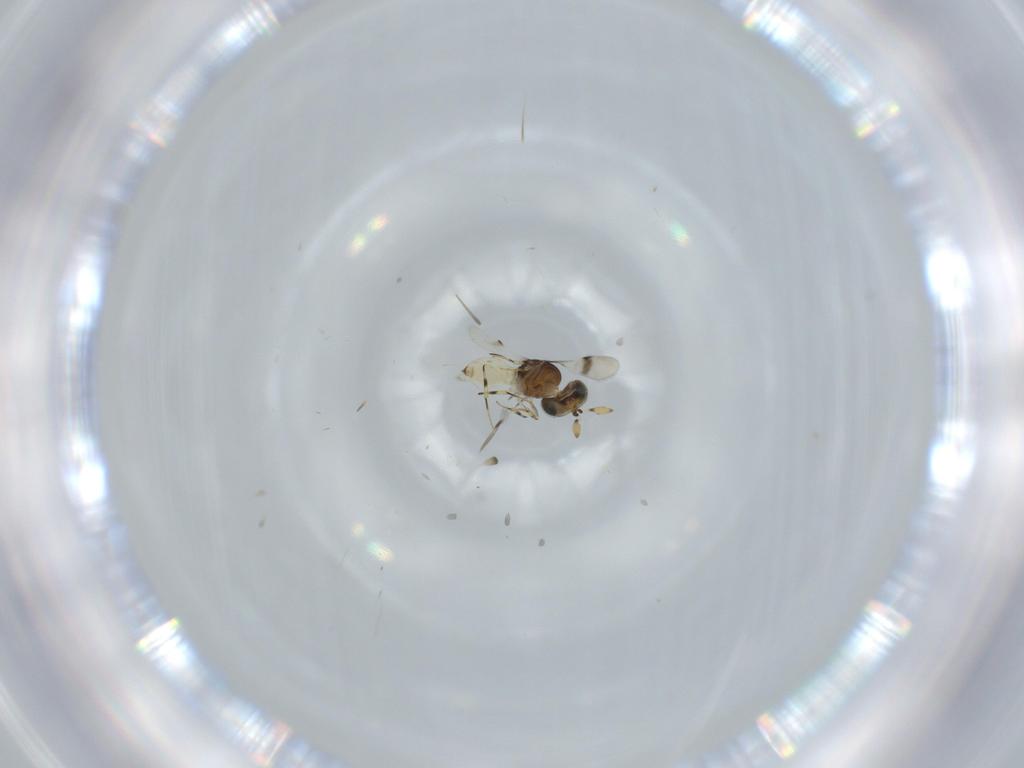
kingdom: Animalia
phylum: Arthropoda
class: Insecta
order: Hymenoptera
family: Scelionidae
